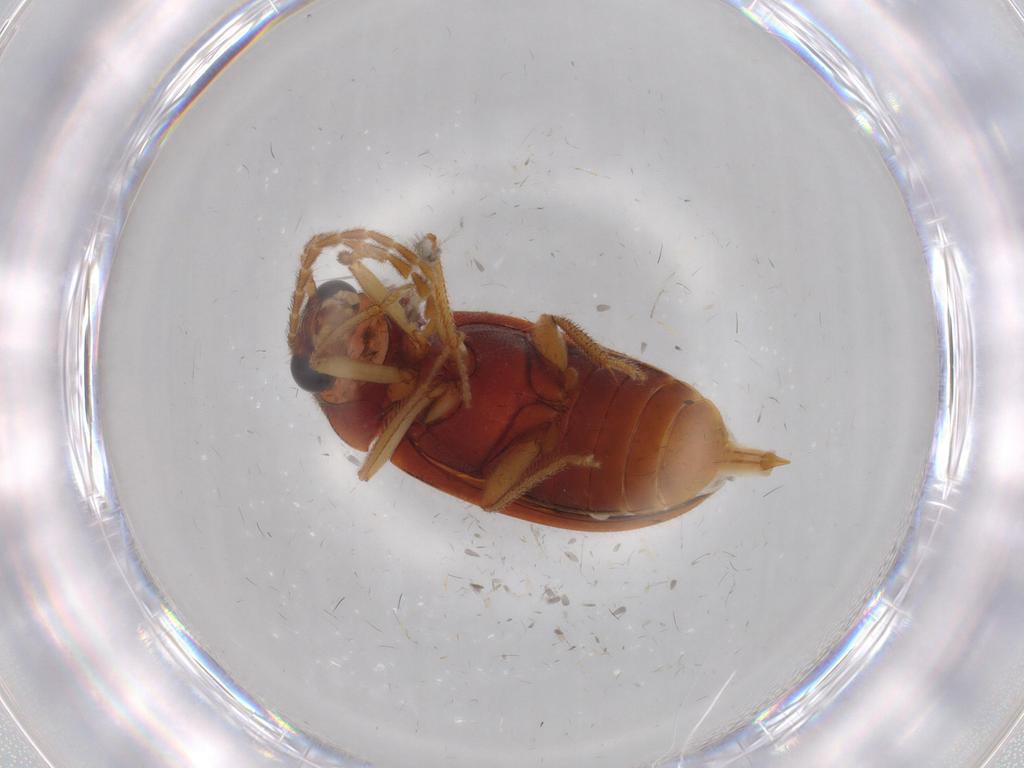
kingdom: Animalia
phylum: Arthropoda
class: Insecta
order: Coleoptera
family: Ptilodactylidae
